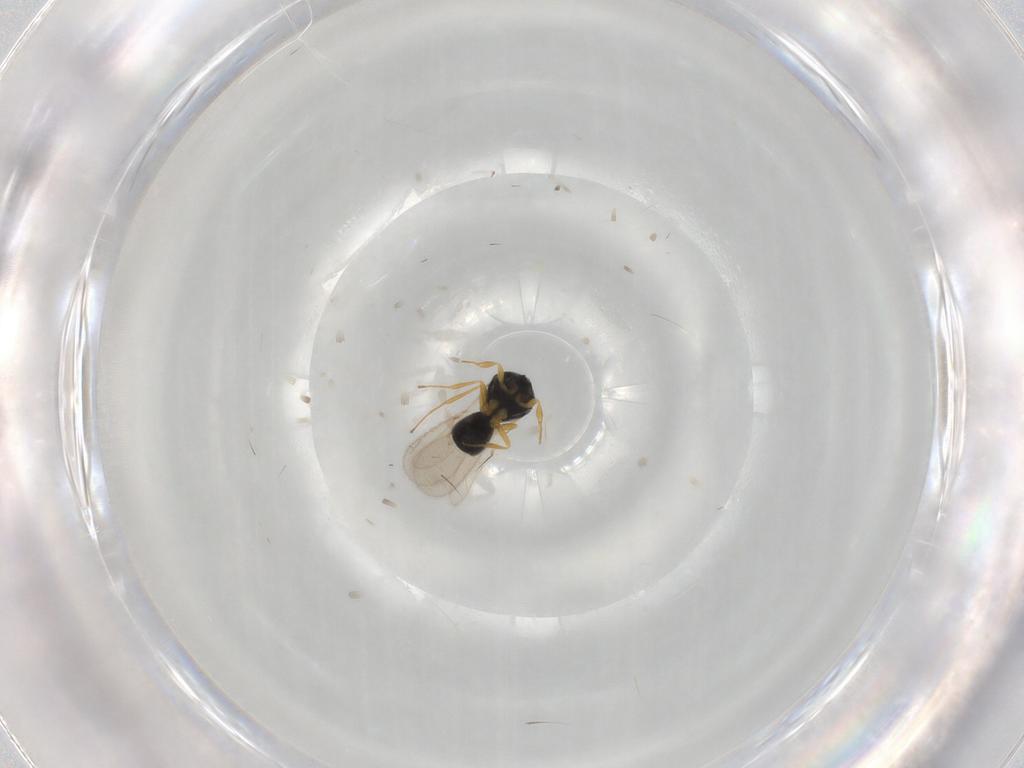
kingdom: Animalia
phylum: Arthropoda
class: Insecta
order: Hymenoptera
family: Scelionidae
